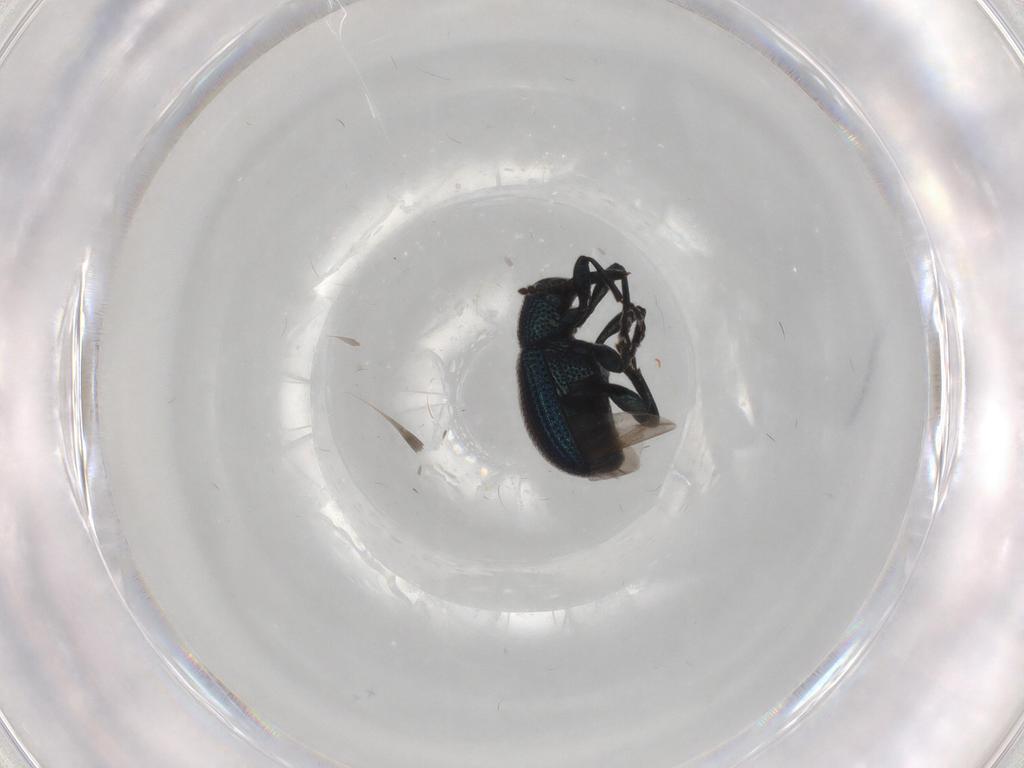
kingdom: Animalia
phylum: Arthropoda
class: Insecta
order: Coleoptera
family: Attelabidae
